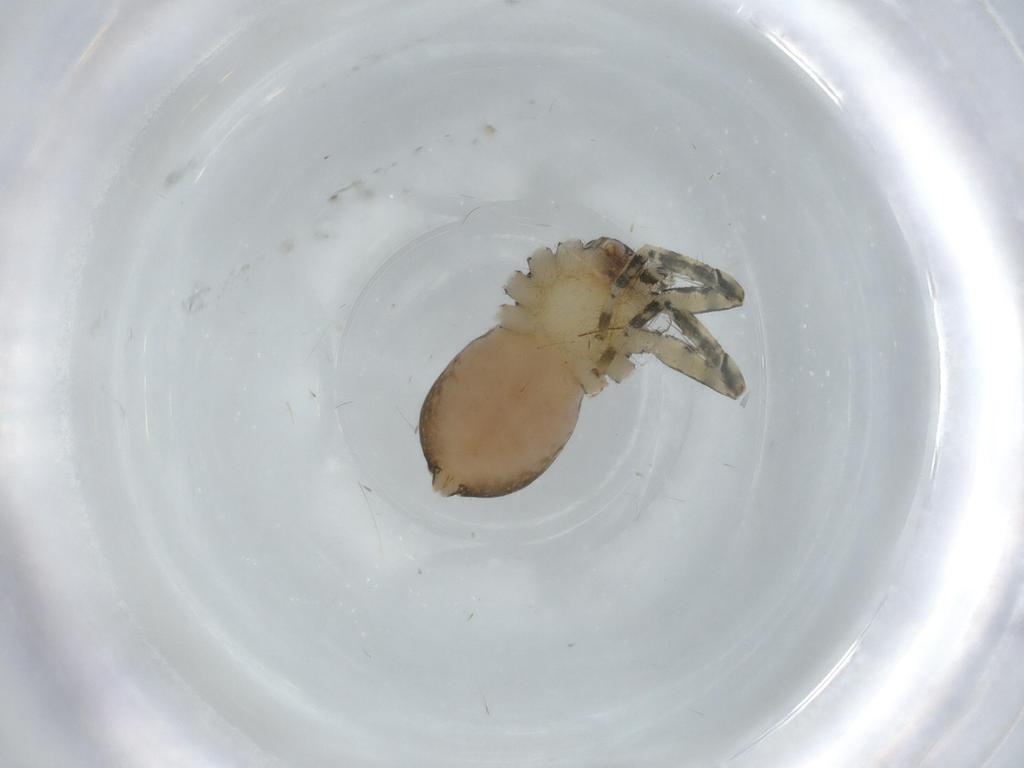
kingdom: Animalia
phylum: Arthropoda
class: Arachnida
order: Araneae
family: Selenopidae
